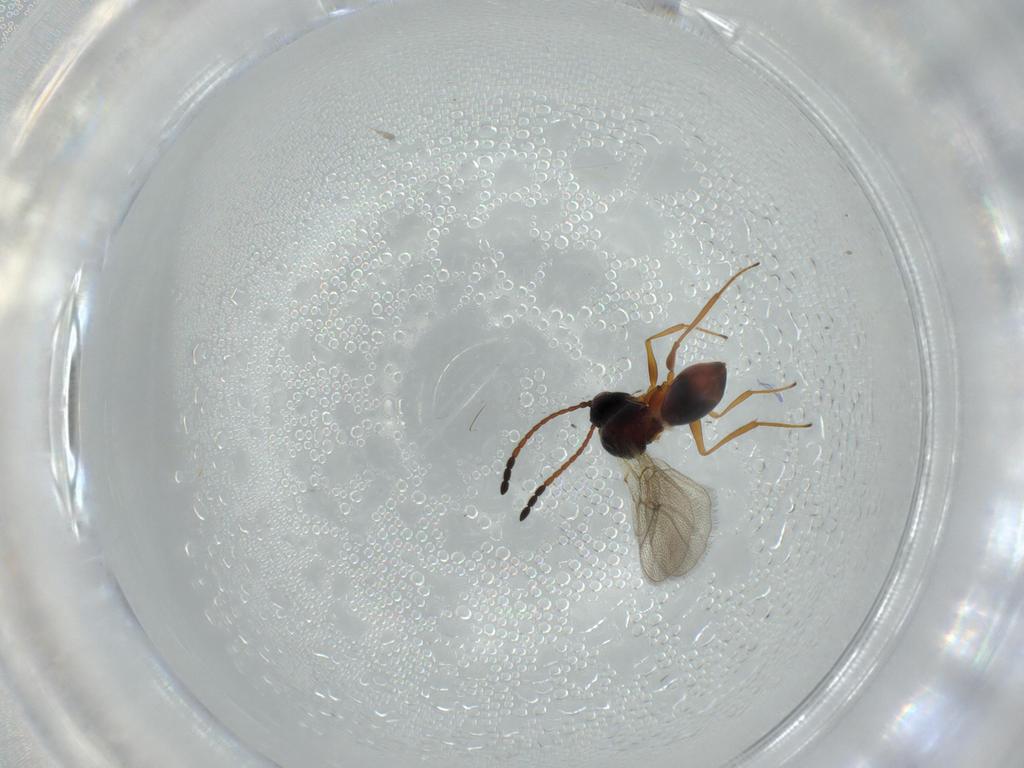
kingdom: Animalia
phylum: Arthropoda
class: Insecta
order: Hymenoptera
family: Figitidae
